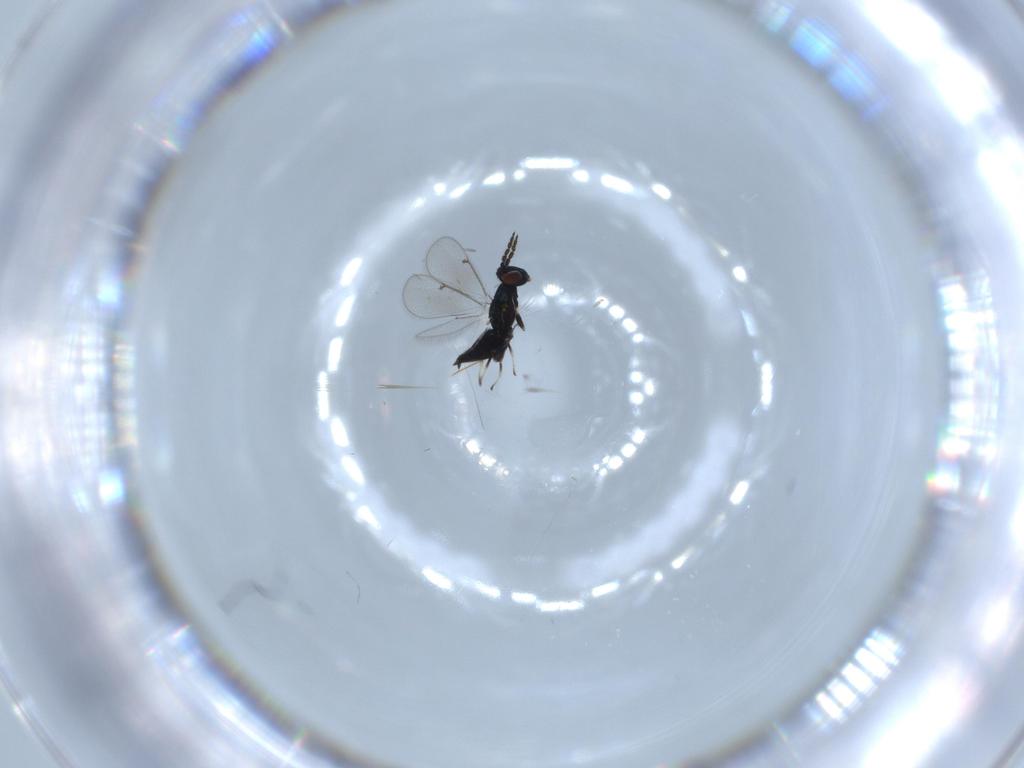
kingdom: Animalia
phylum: Arthropoda
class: Insecta
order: Hymenoptera
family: Eulophidae
